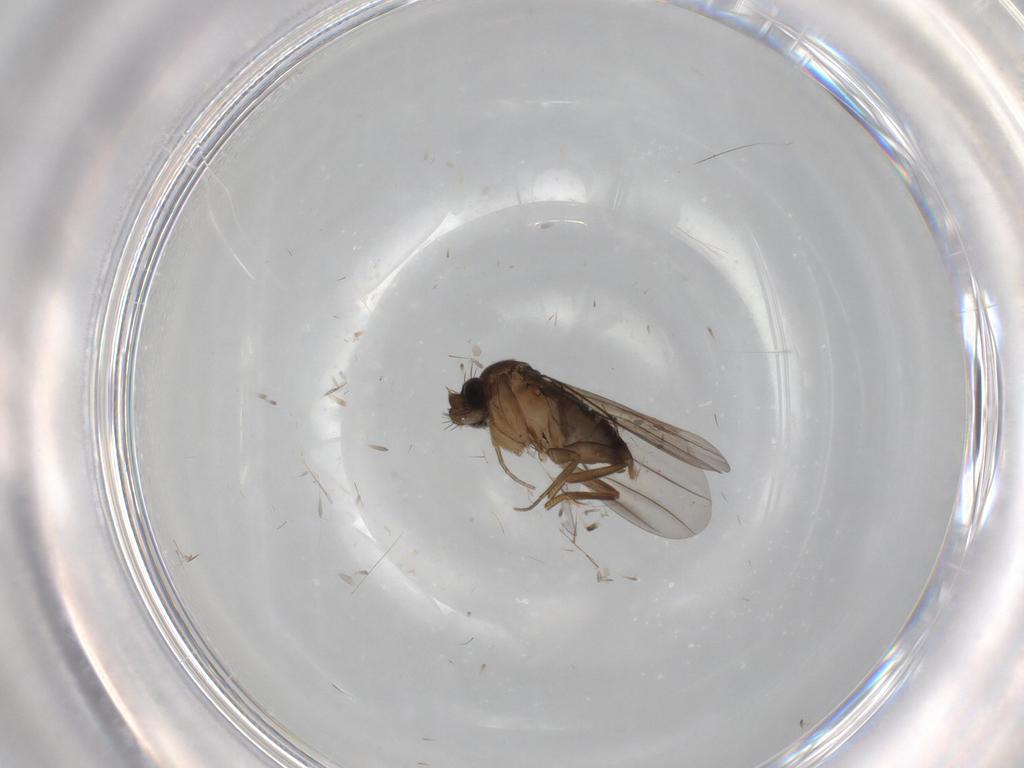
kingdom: Animalia
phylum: Arthropoda
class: Insecta
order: Diptera
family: Phoridae
